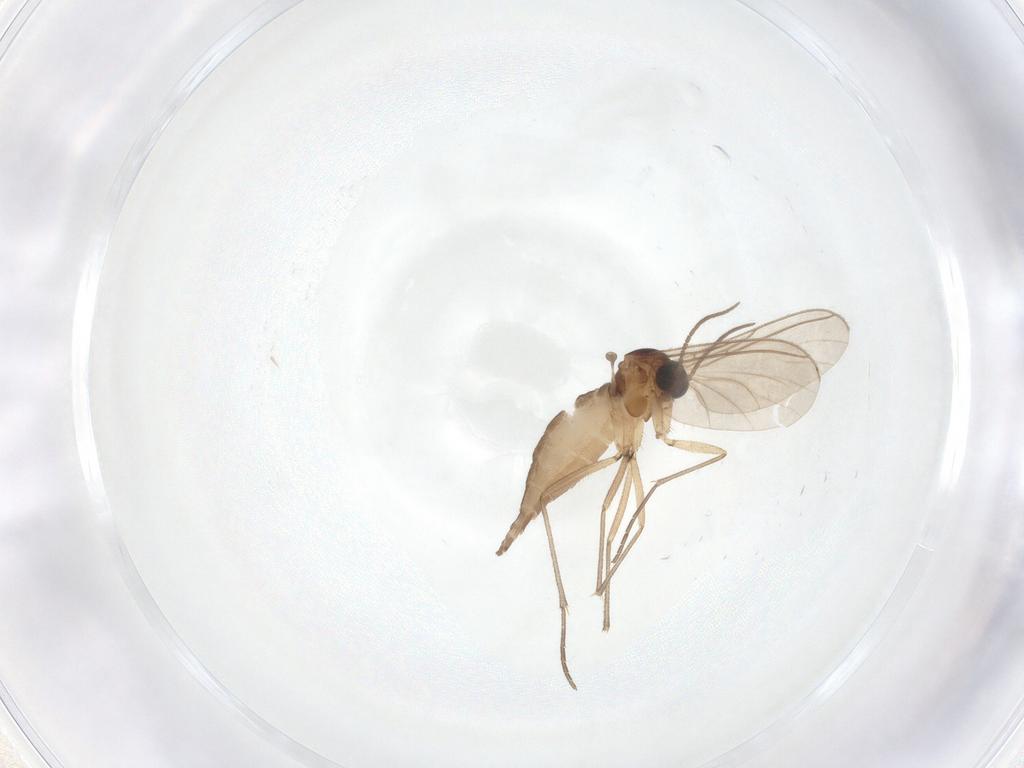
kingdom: Animalia
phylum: Arthropoda
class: Insecta
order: Diptera
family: Sciaridae
